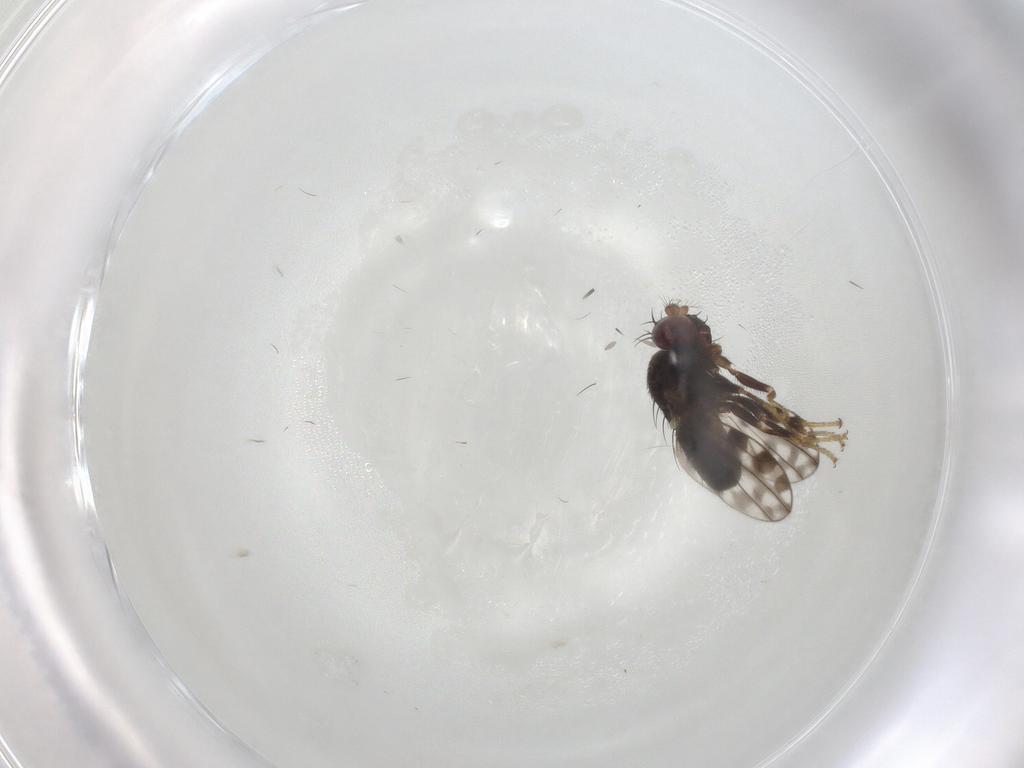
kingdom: Animalia
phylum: Arthropoda
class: Insecta
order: Diptera
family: Ephydridae
